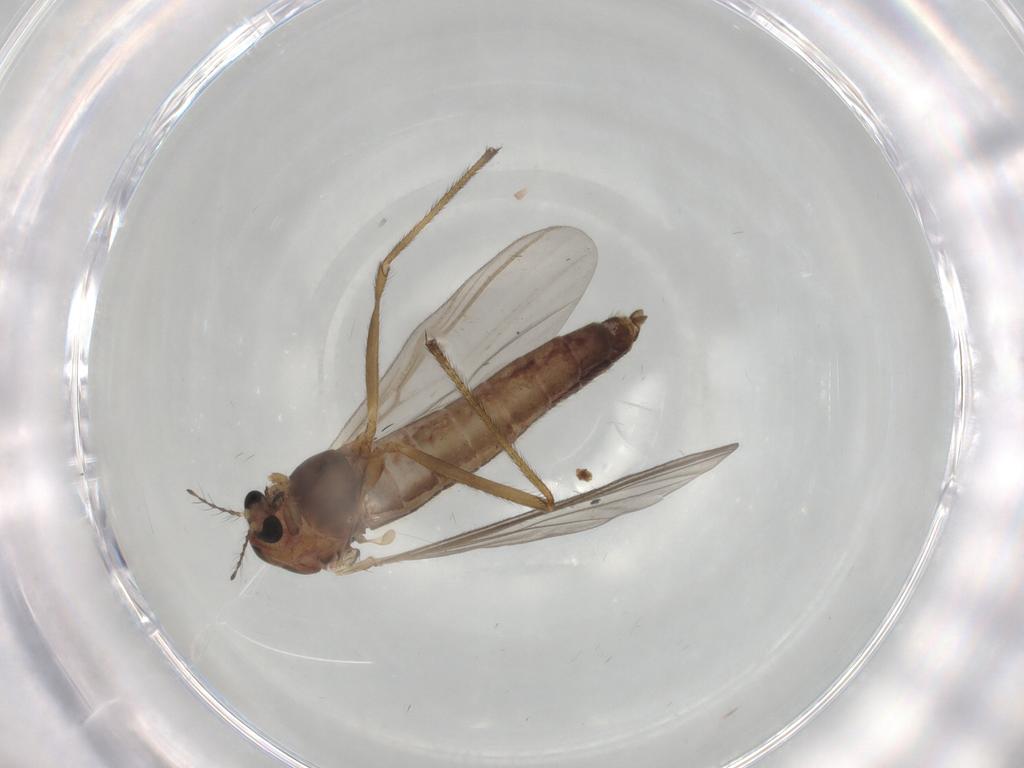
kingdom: Animalia
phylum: Arthropoda
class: Insecta
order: Diptera
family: Chironomidae
